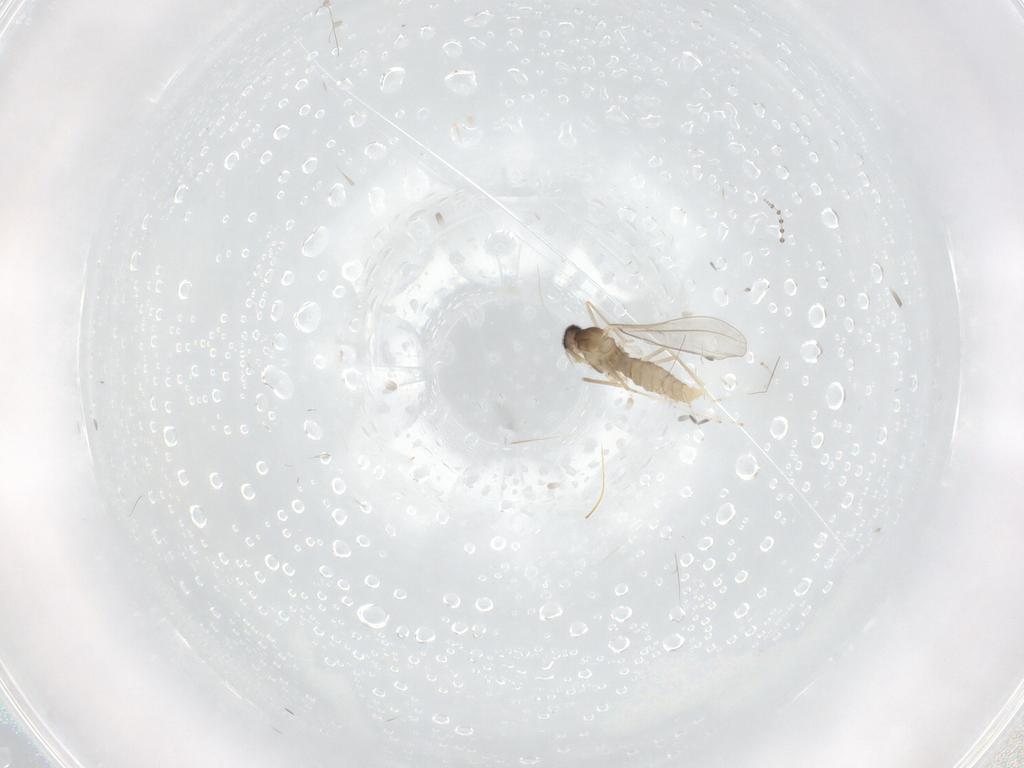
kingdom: Animalia
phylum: Arthropoda
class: Insecta
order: Diptera
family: Cecidomyiidae
